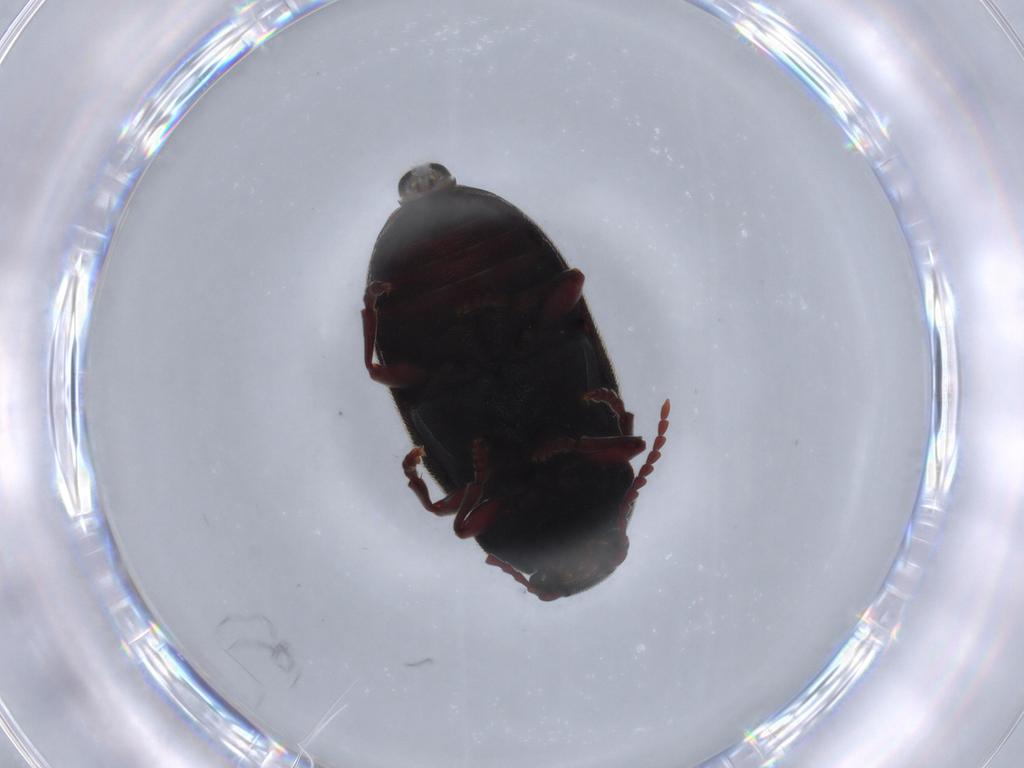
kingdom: Animalia
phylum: Arthropoda
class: Insecta
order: Coleoptera
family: Ptinidae
